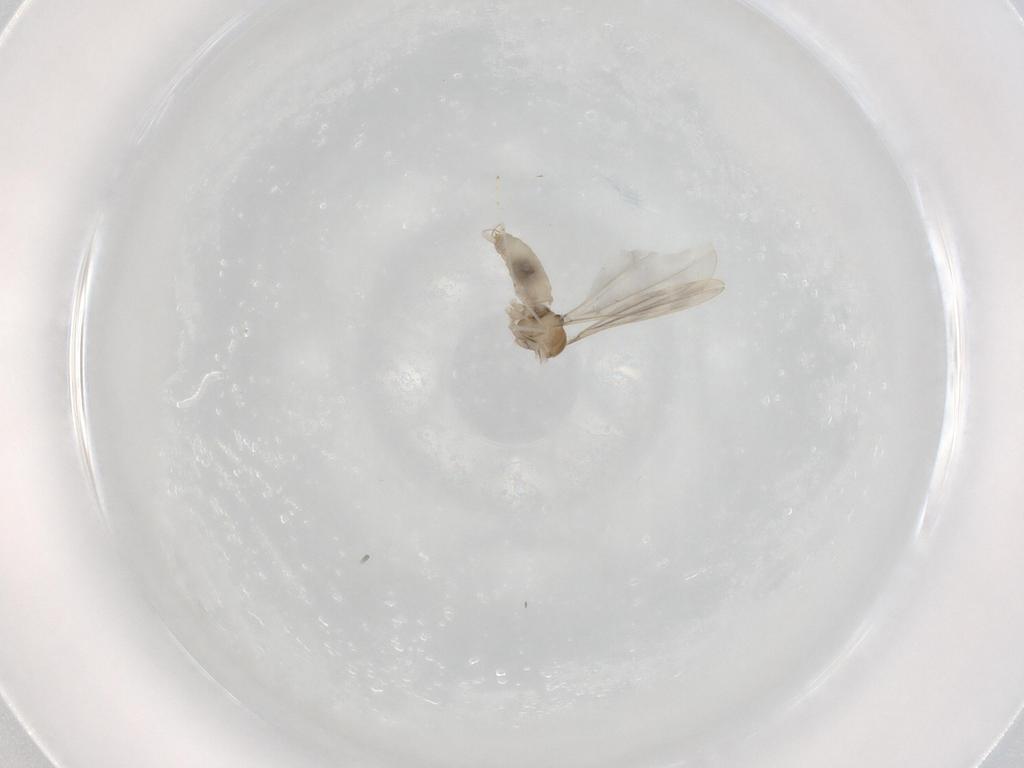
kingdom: Animalia
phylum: Arthropoda
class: Insecta
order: Diptera
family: Cecidomyiidae
